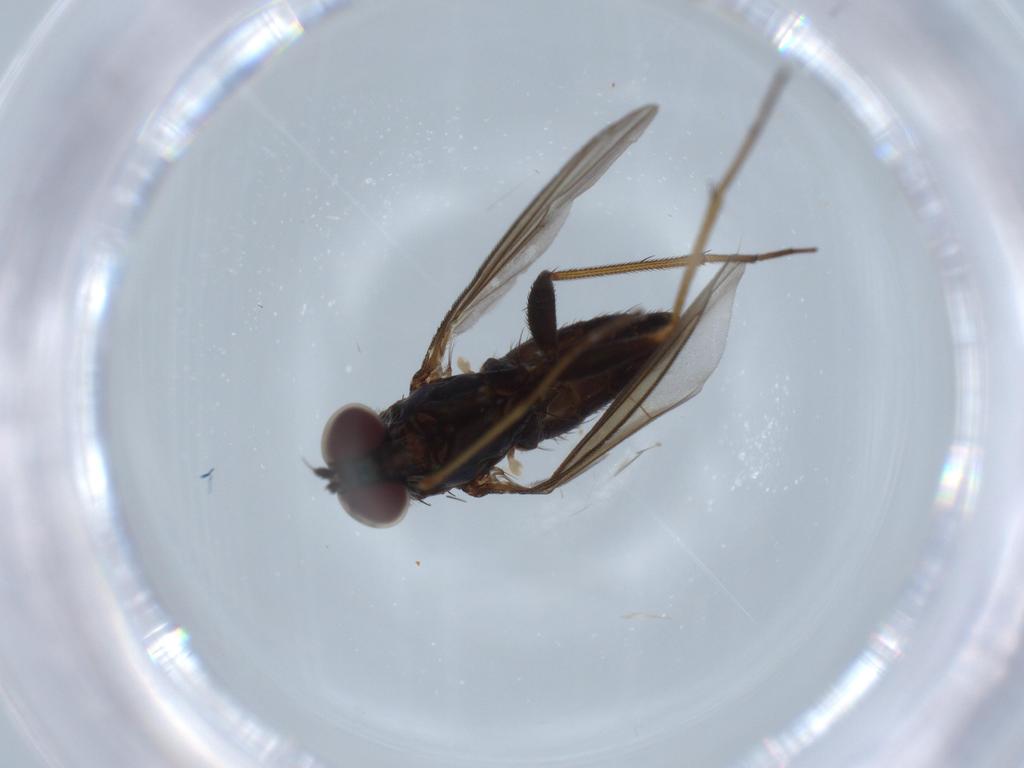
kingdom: Animalia
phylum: Arthropoda
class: Insecta
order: Diptera
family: Dolichopodidae
